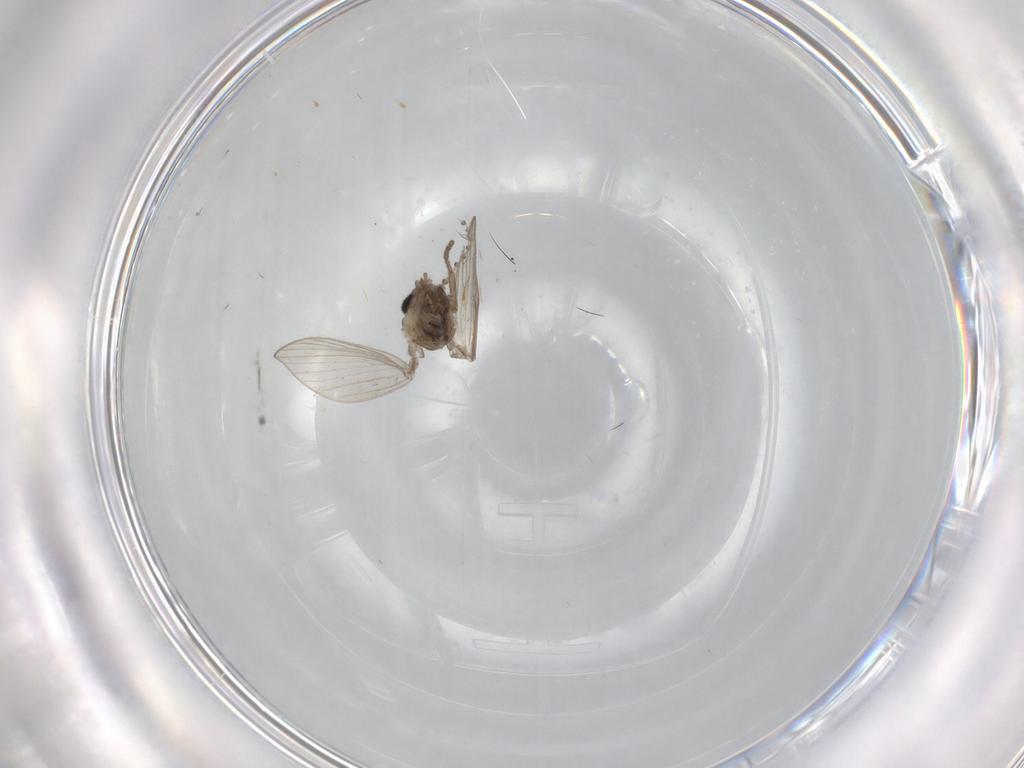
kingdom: Animalia
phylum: Arthropoda
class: Insecta
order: Diptera
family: Psychodidae
